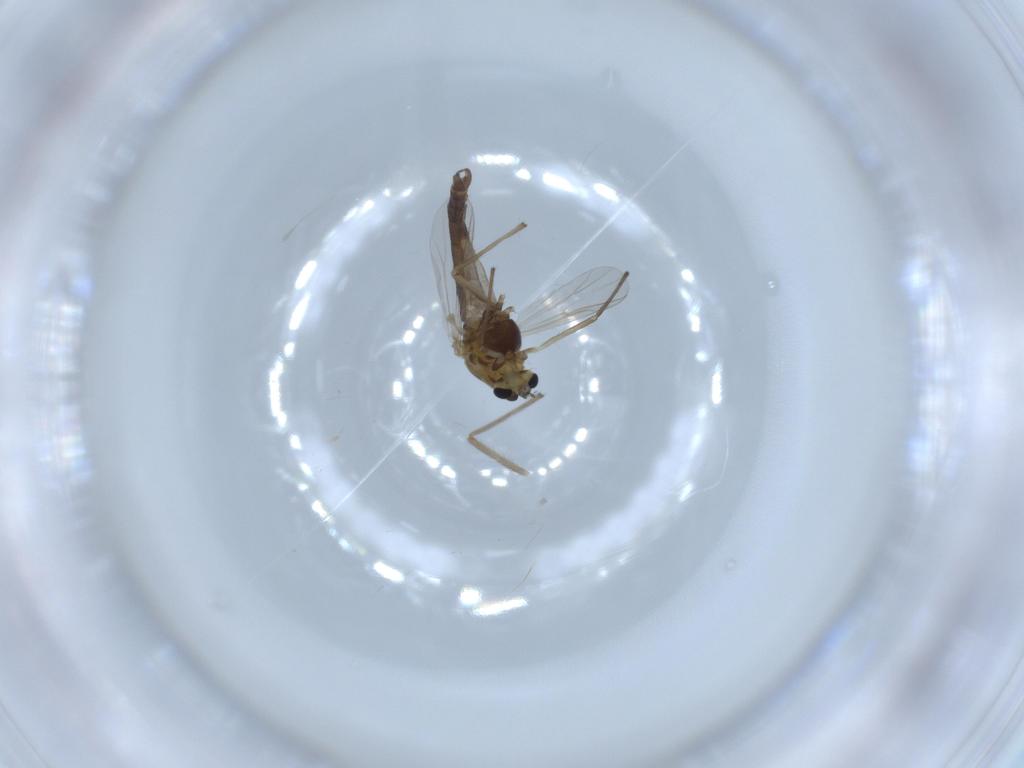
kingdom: Animalia
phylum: Arthropoda
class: Insecta
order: Diptera
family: Chironomidae
